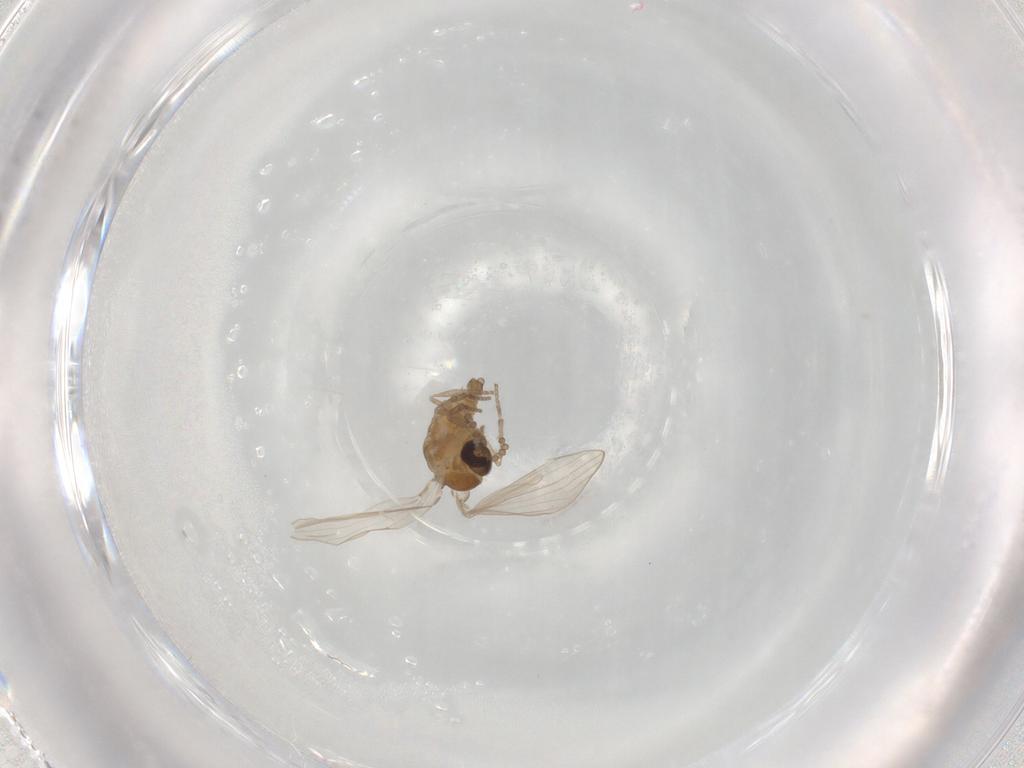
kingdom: Animalia
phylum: Arthropoda
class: Insecta
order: Diptera
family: Psychodidae
